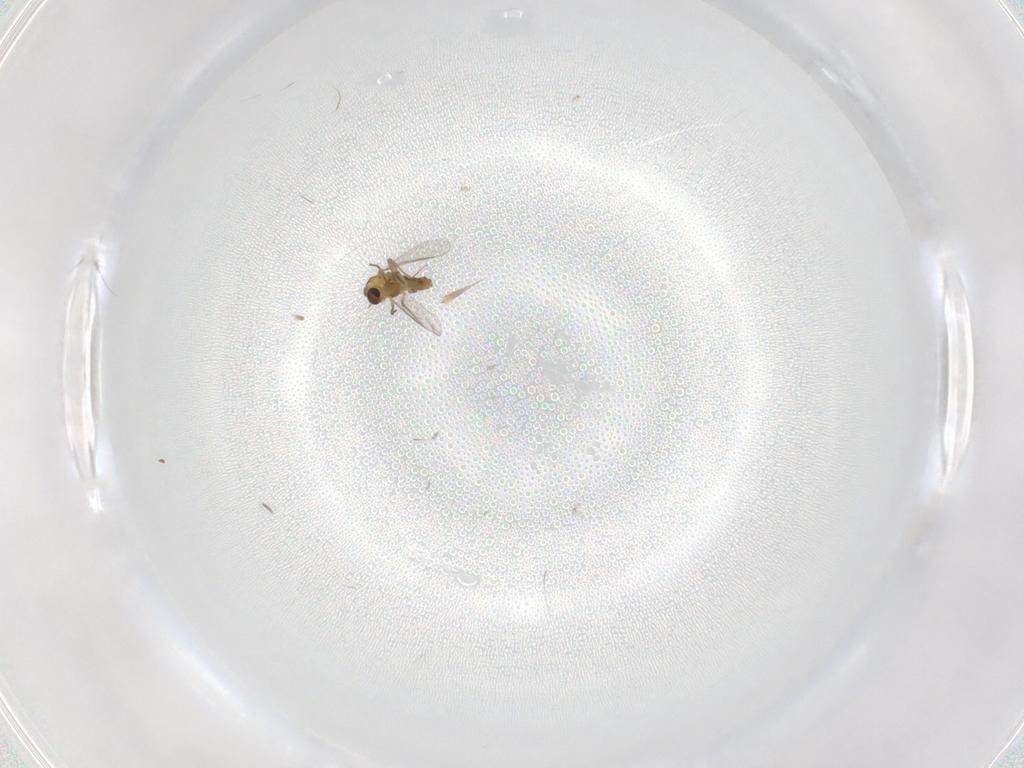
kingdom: Animalia
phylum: Arthropoda
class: Insecta
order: Diptera
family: Chironomidae
